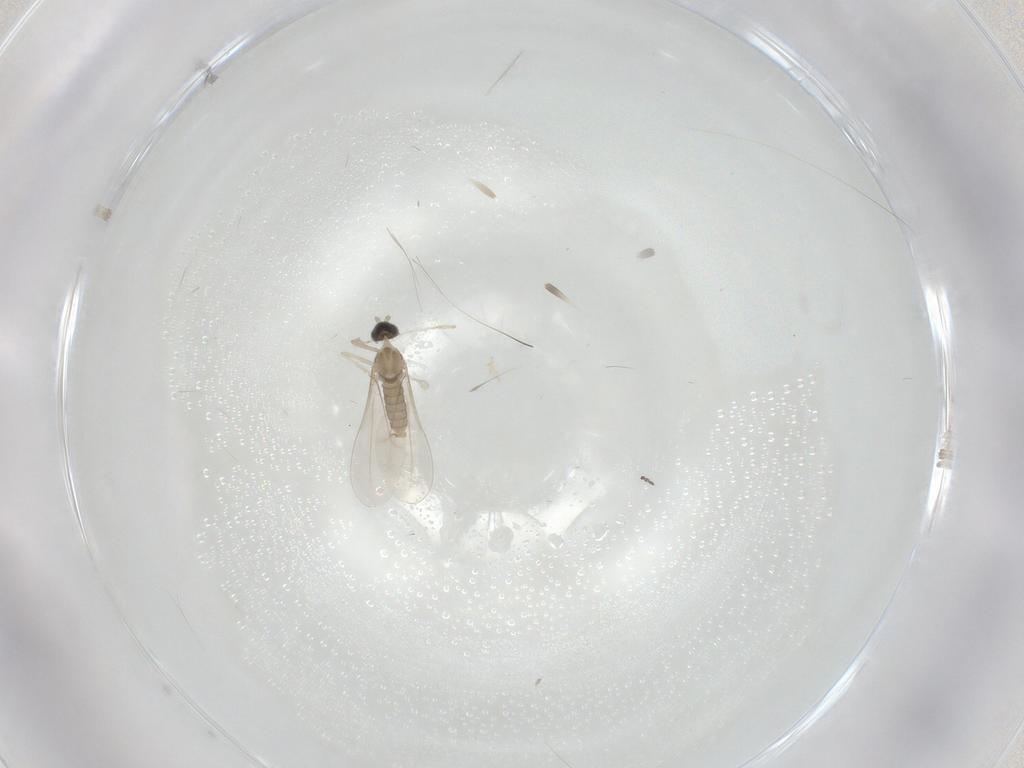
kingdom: Animalia
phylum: Arthropoda
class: Insecta
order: Diptera
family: Cecidomyiidae
